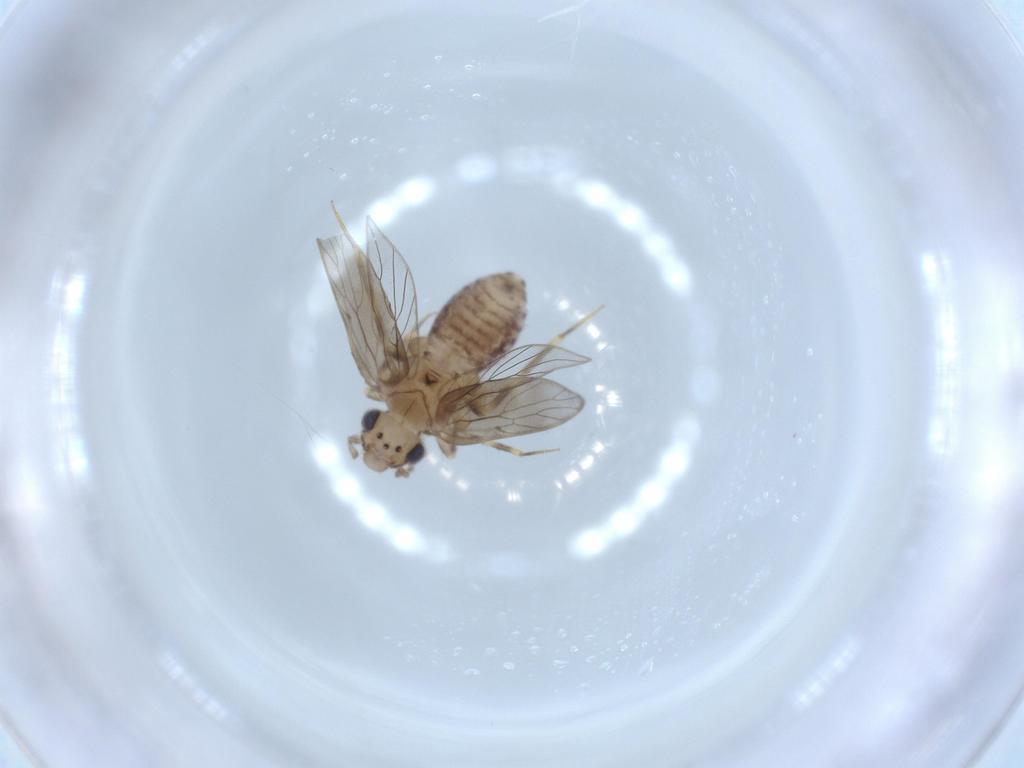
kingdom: Animalia
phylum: Arthropoda
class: Insecta
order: Psocodea
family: Lepidopsocidae
